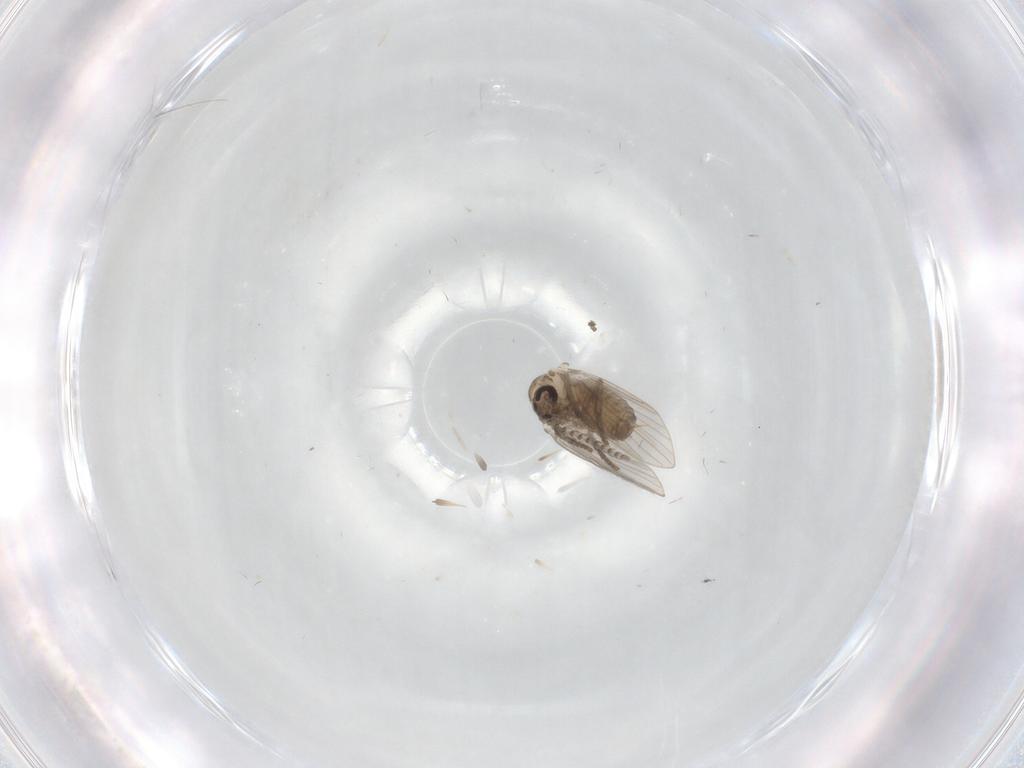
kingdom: Animalia
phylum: Arthropoda
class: Insecta
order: Diptera
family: Psychodidae
